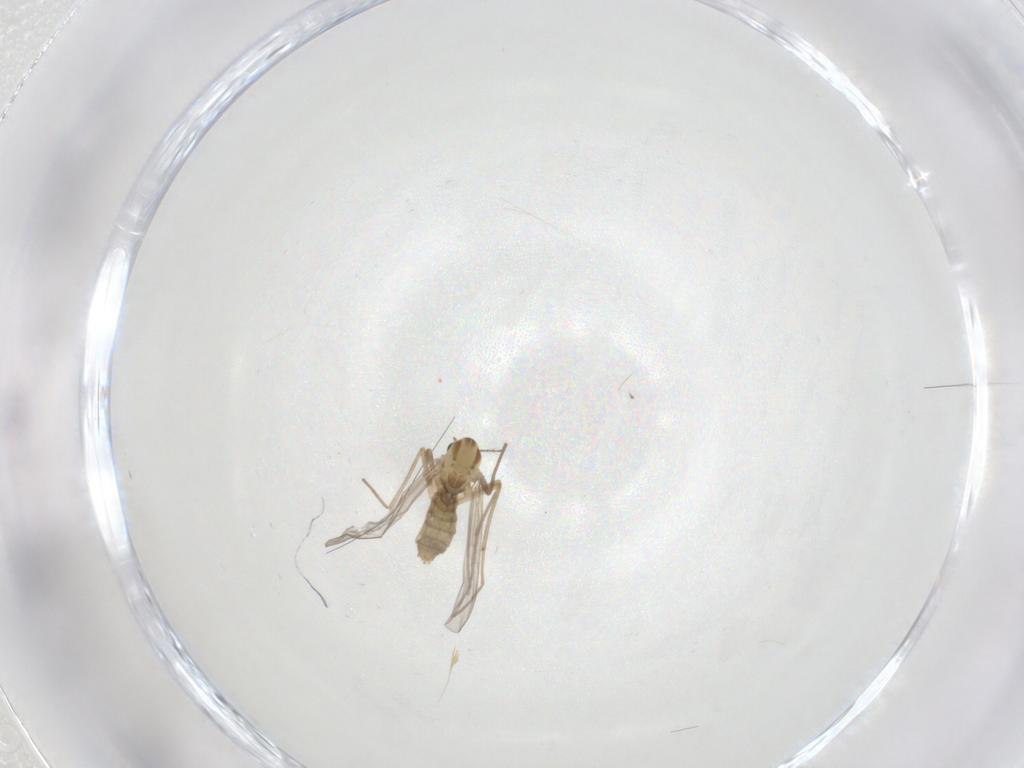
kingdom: Animalia
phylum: Arthropoda
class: Insecta
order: Diptera
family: Chironomidae
